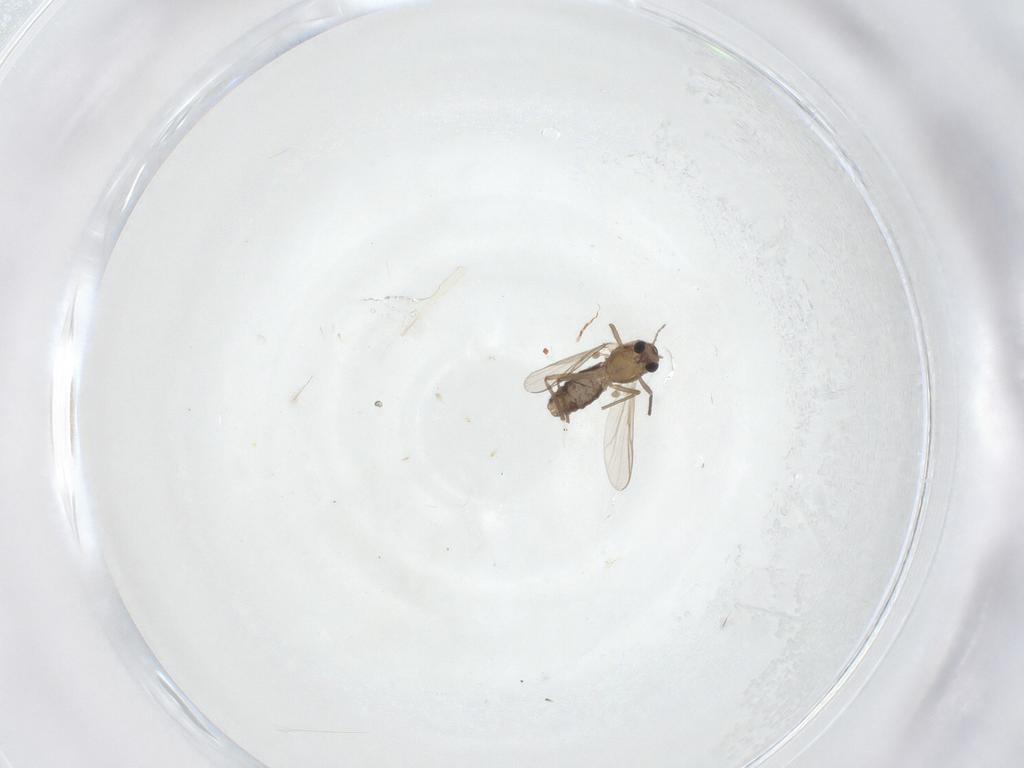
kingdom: Animalia
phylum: Arthropoda
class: Insecta
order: Diptera
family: Chironomidae
